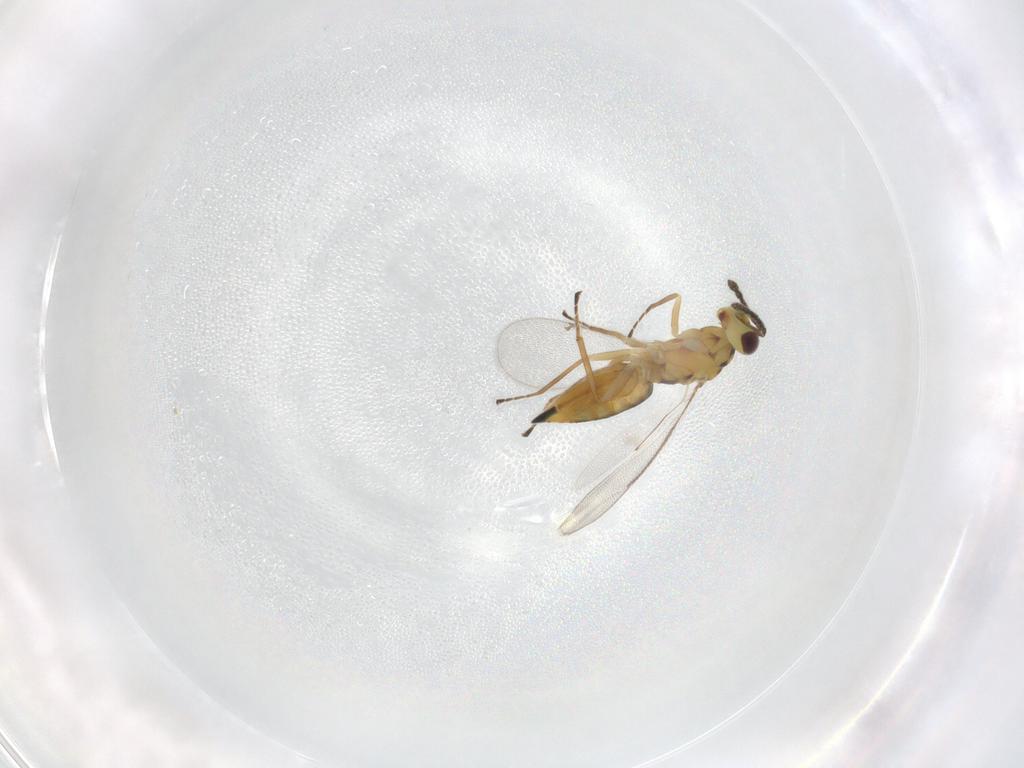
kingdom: Animalia
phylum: Arthropoda
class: Insecta
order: Hymenoptera
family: Eulophidae
